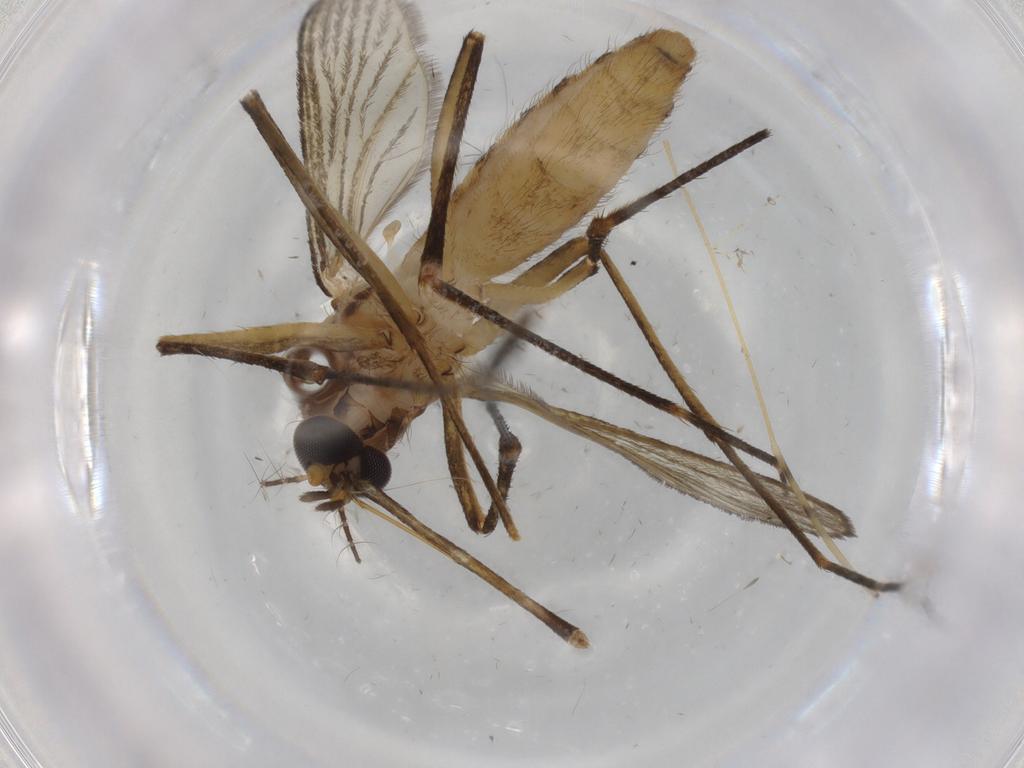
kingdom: Animalia
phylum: Arthropoda
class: Insecta
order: Diptera
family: Culicidae
